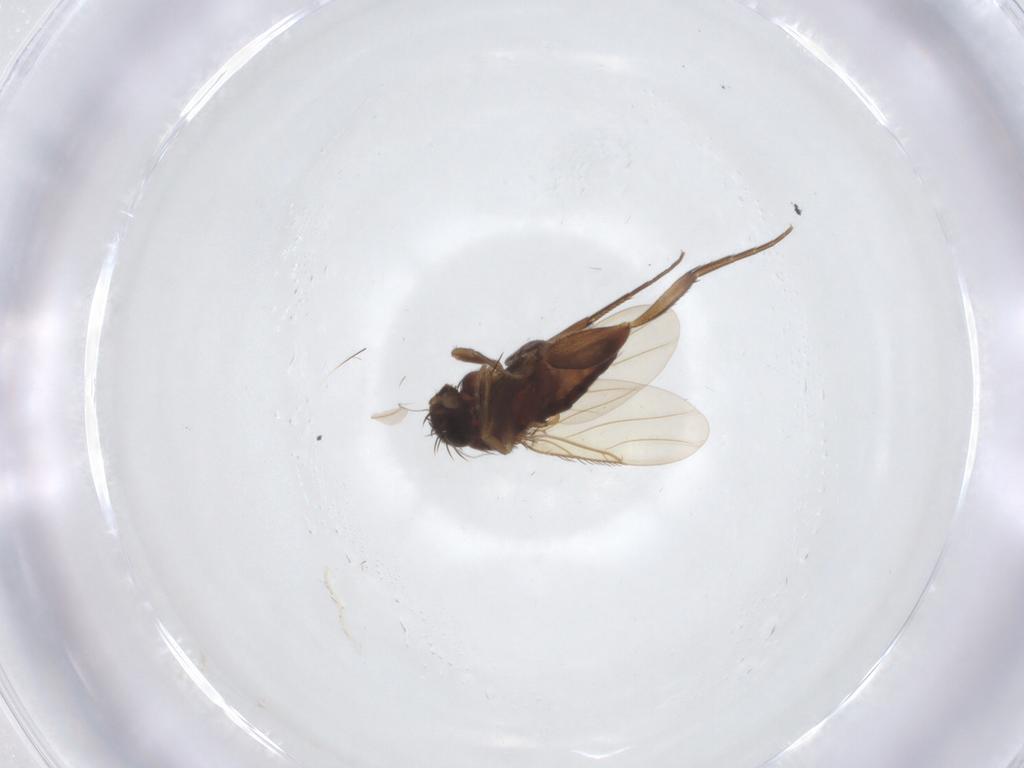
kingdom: Animalia
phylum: Arthropoda
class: Insecta
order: Diptera
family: Phoridae
